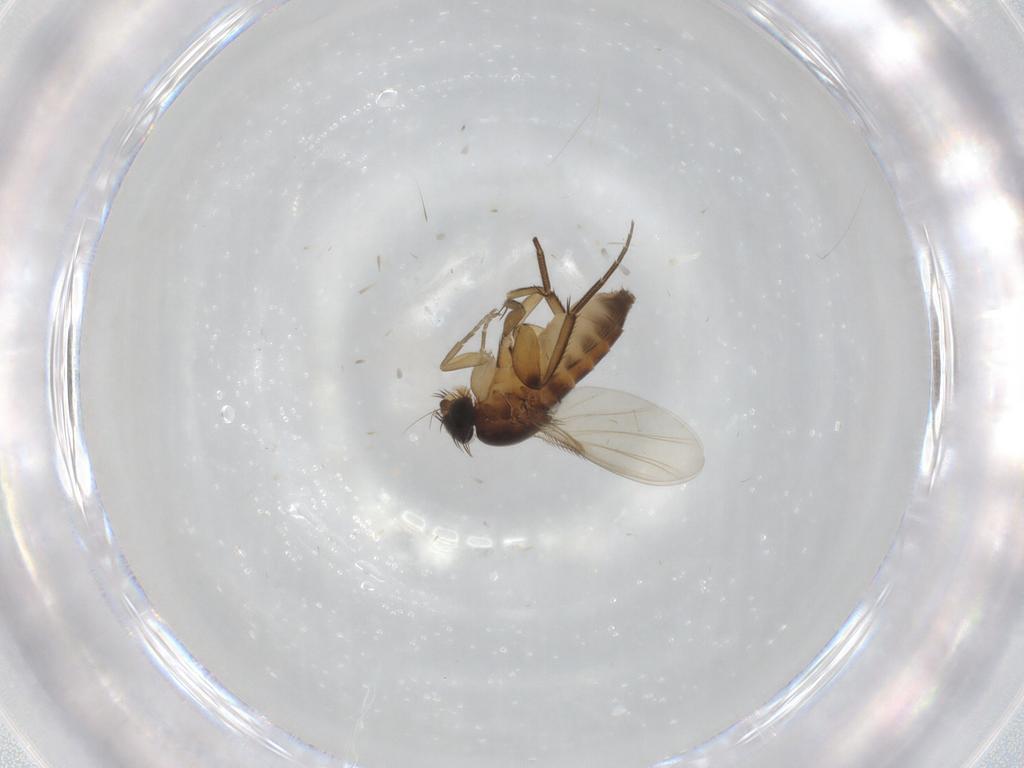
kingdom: Animalia
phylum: Arthropoda
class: Insecta
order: Diptera
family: Phoridae
